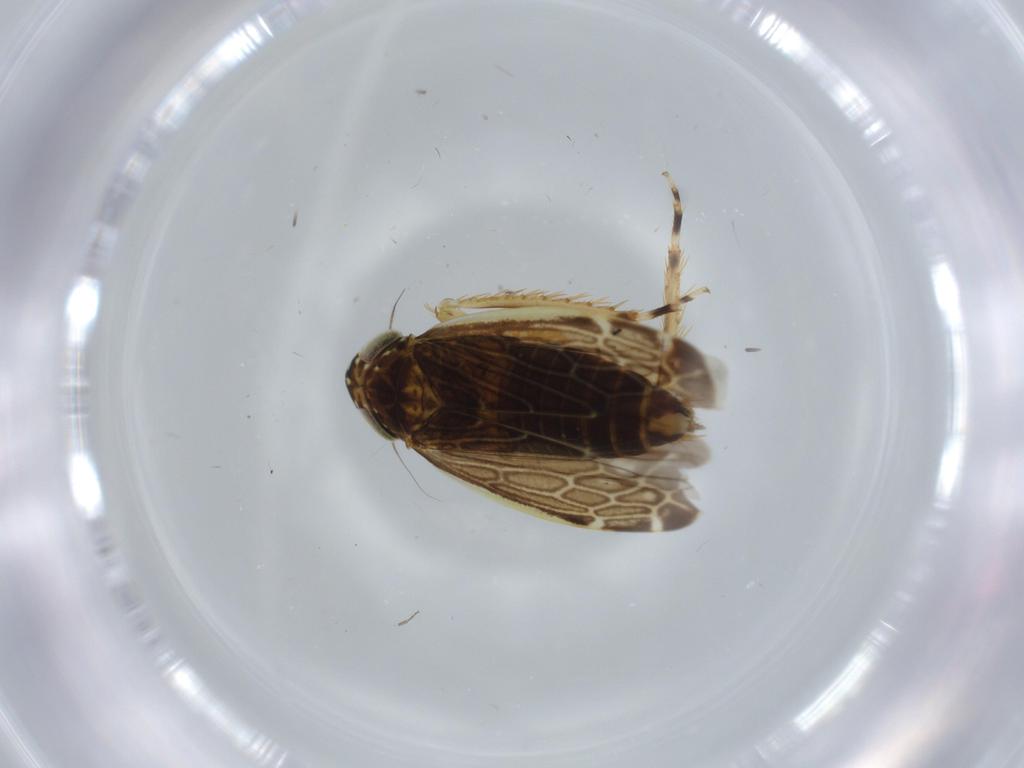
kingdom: Animalia
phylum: Arthropoda
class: Insecta
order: Hemiptera
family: Cicadellidae
